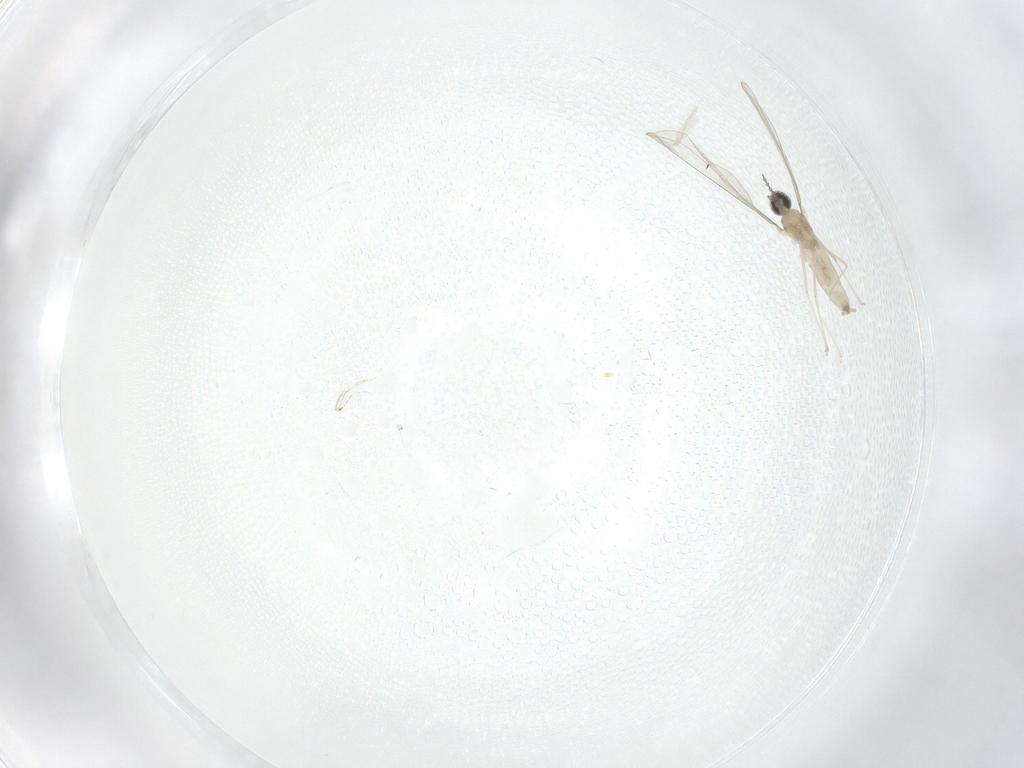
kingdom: Animalia
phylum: Arthropoda
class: Insecta
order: Diptera
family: Cecidomyiidae
